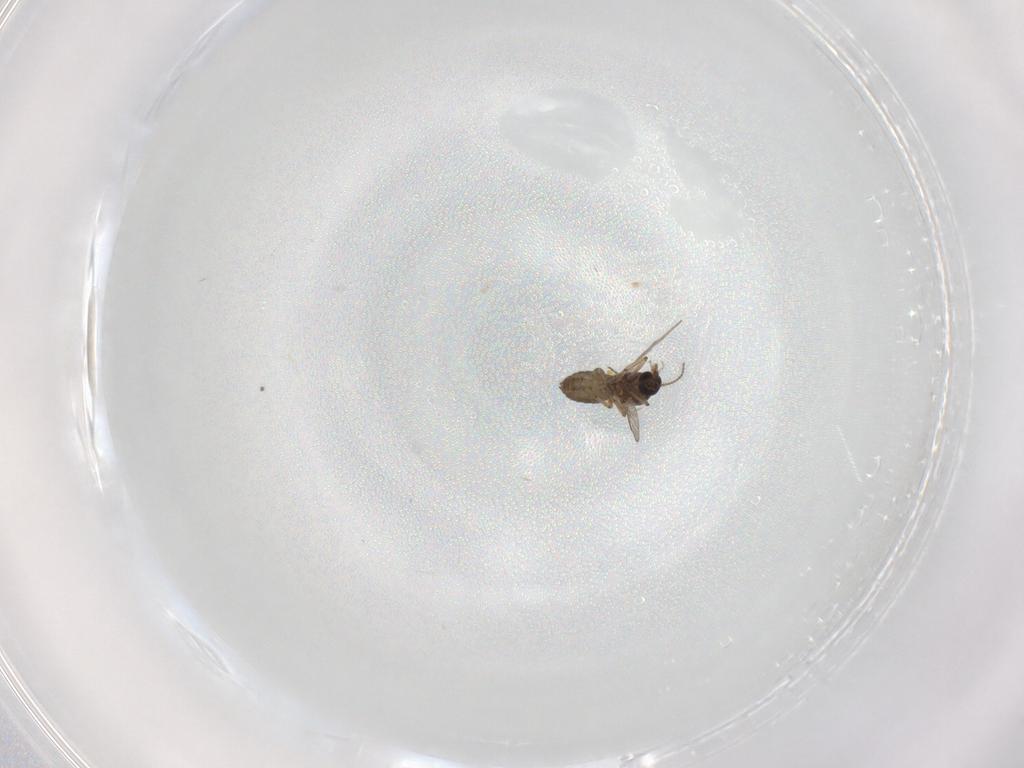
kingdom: Animalia
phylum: Arthropoda
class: Insecta
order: Diptera
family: Ceratopogonidae
